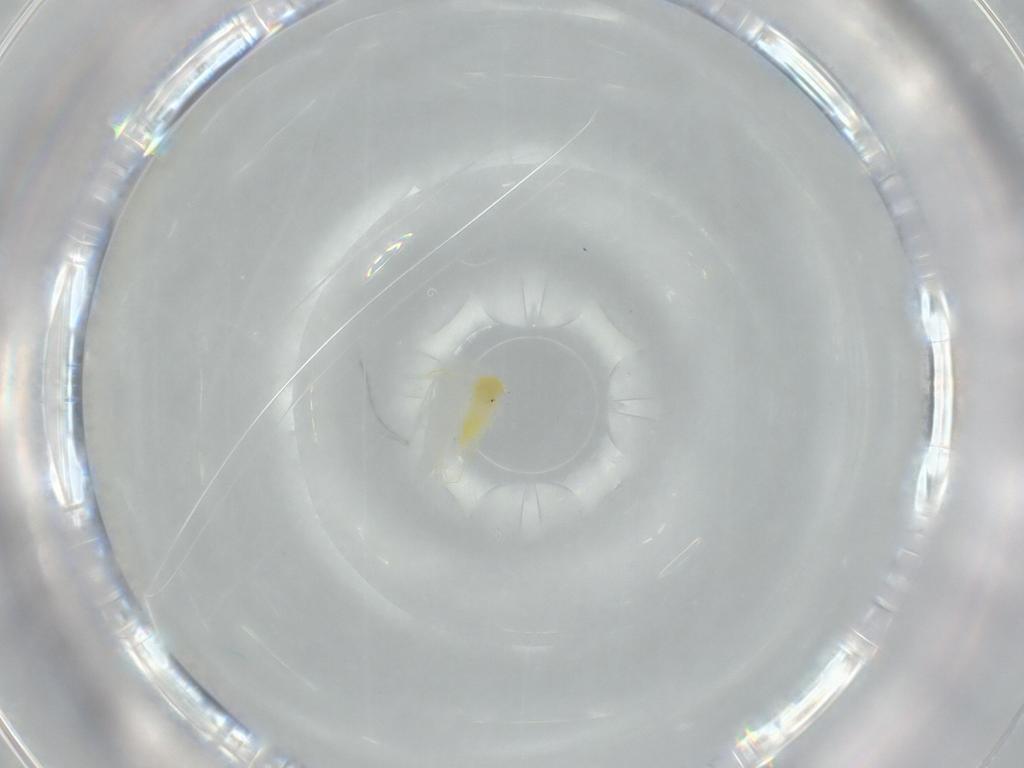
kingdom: Animalia
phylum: Arthropoda
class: Insecta
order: Hemiptera
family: Aleyrodidae
